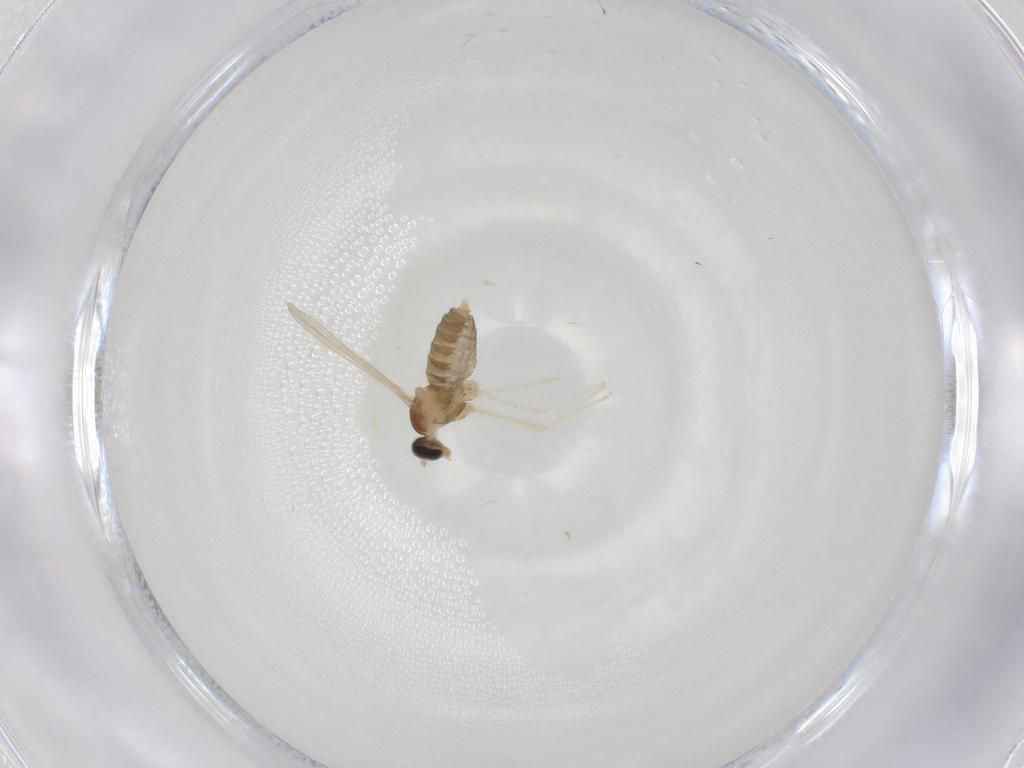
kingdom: Animalia
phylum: Arthropoda
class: Insecta
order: Diptera
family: Cecidomyiidae
